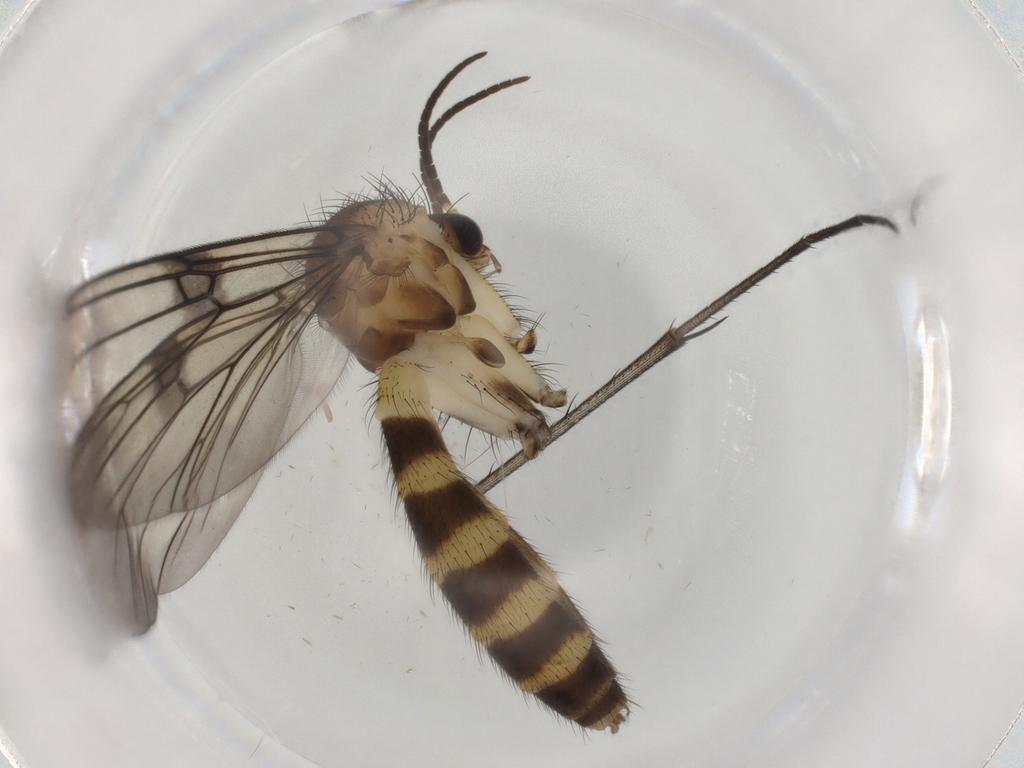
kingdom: Animalia
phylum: Arthropoda
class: Insecta
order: Diptera
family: Mycetophilidae
